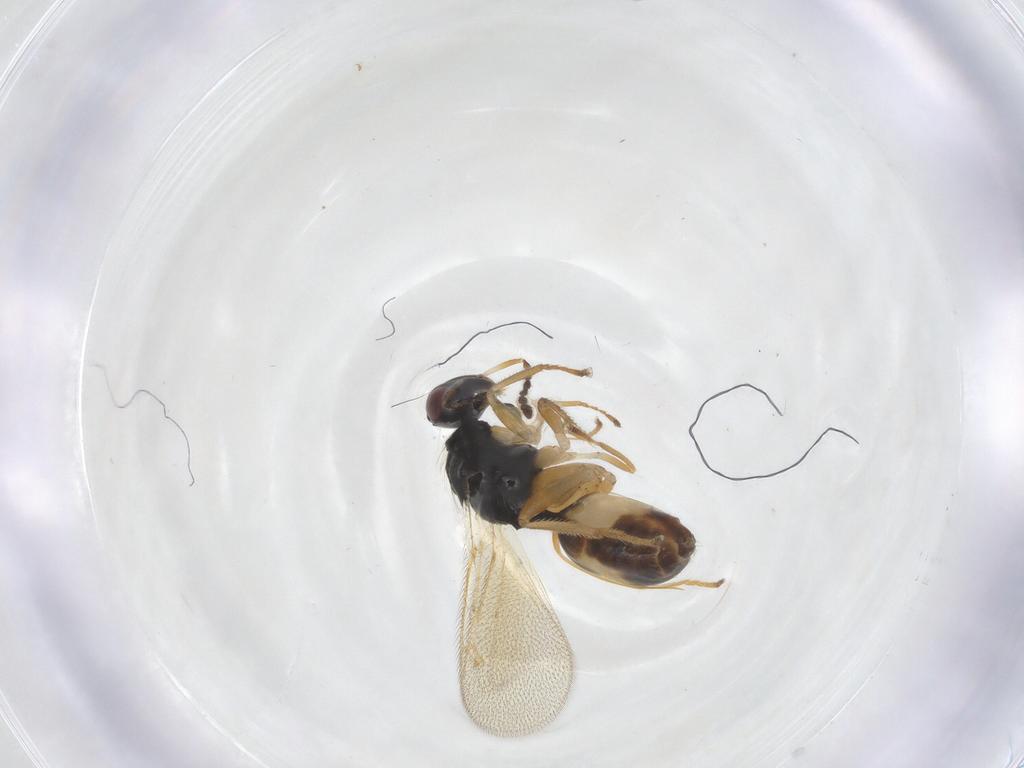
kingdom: Animalia
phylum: Arthropoda
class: Insecta
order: Hymenoptera
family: Eulophidae
